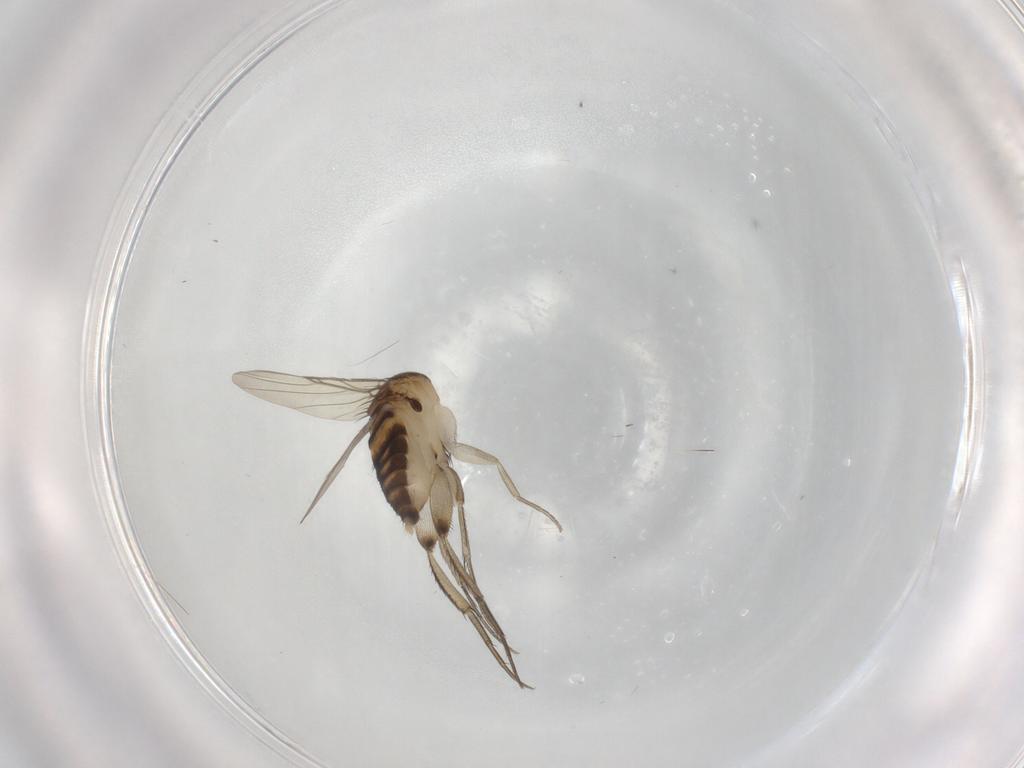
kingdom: Animalia
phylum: Arthropoda
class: Insecta
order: Diptera
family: Phoridae
